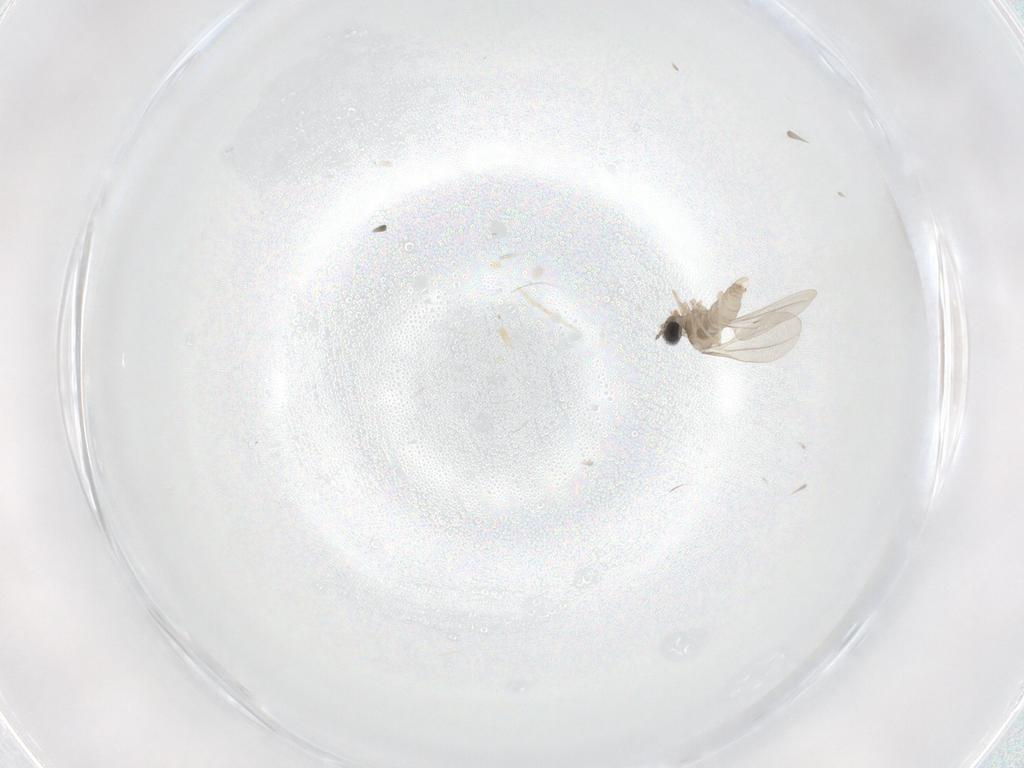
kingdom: Animalia
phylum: Arthropoda
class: Insecta
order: Diptera
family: Cecidomyiidae
